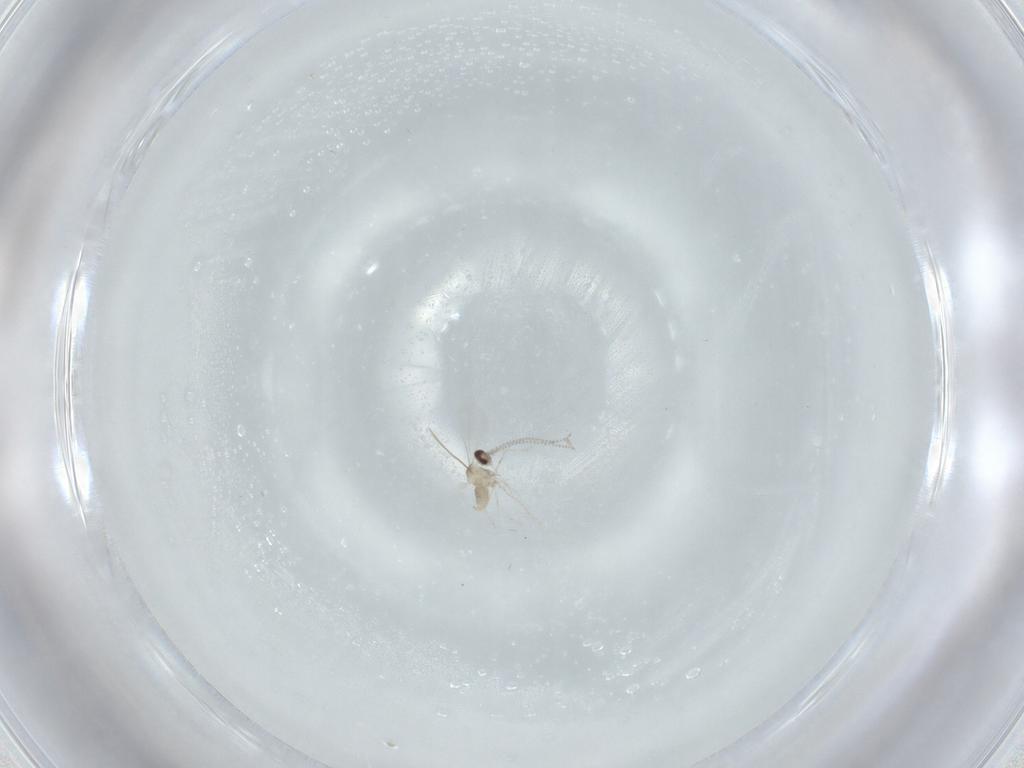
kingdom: Animalia
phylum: Arthropoda
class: Insecta
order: Diptera
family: Cecidomyiidae
